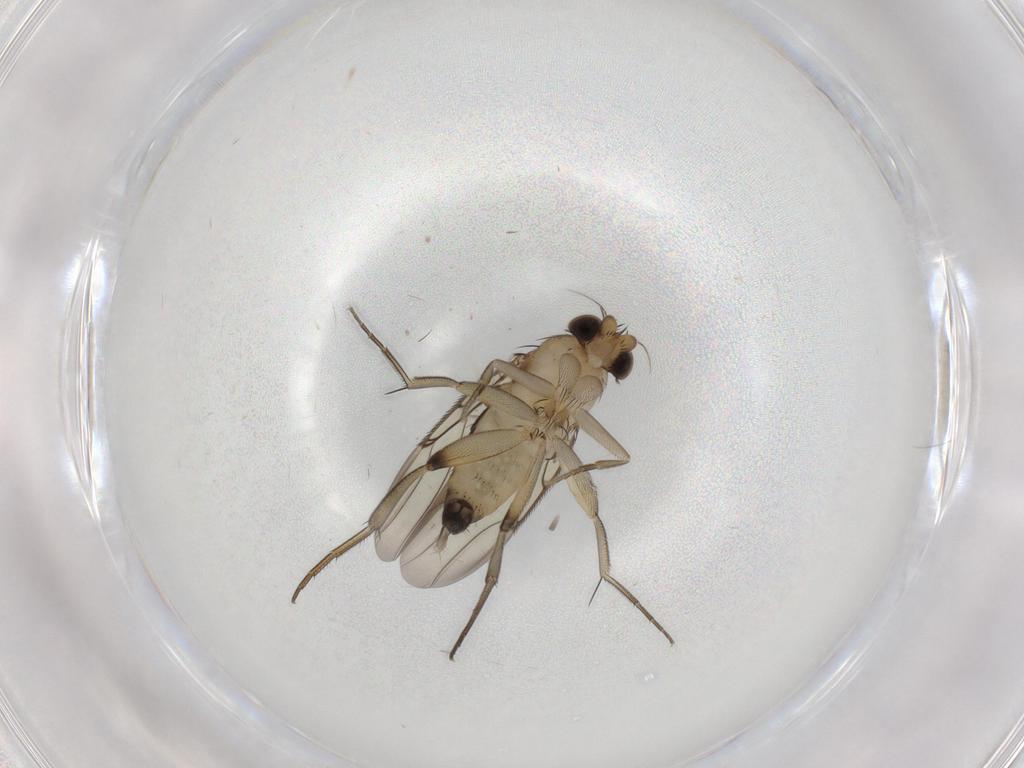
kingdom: Animalia
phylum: Arthropoda
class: Insecta
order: Diptera
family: Phoridae
